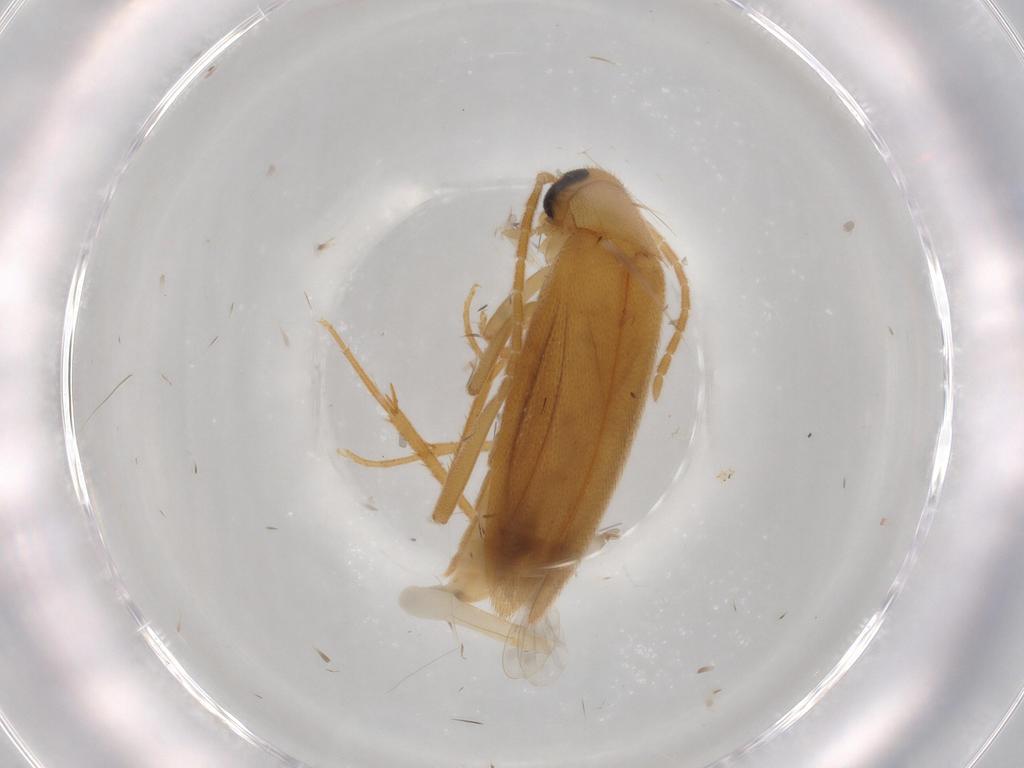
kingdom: Animalia
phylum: Arthropoda
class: Insecta
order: Coleoptera
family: Scraptiidae
